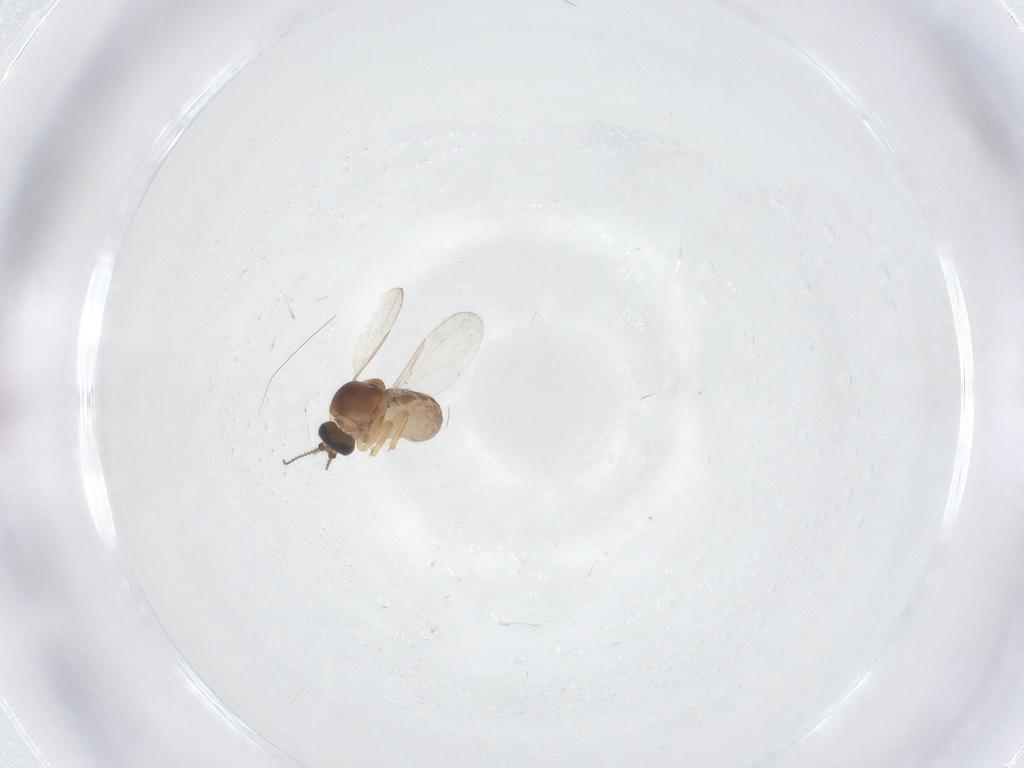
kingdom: Animalia
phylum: Arthropoda
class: Insecta
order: Diptera
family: Ceratopogonidae
